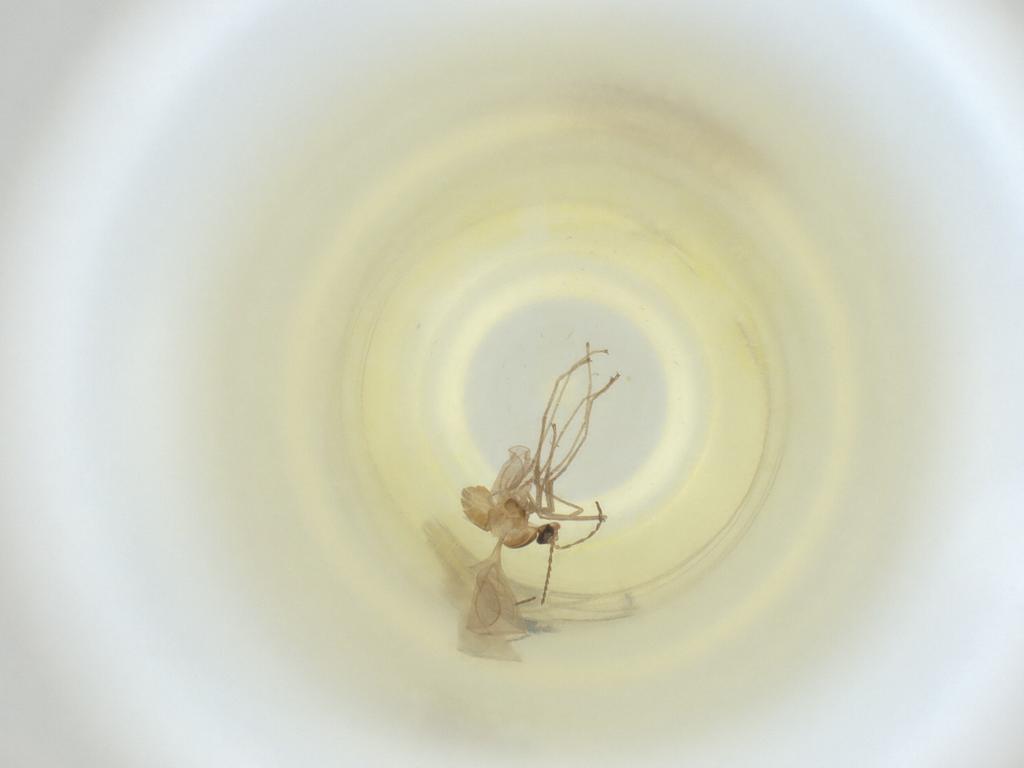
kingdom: Animalia
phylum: Arthropoda
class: Insecta
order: Diptera
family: Cecidomyiidae
